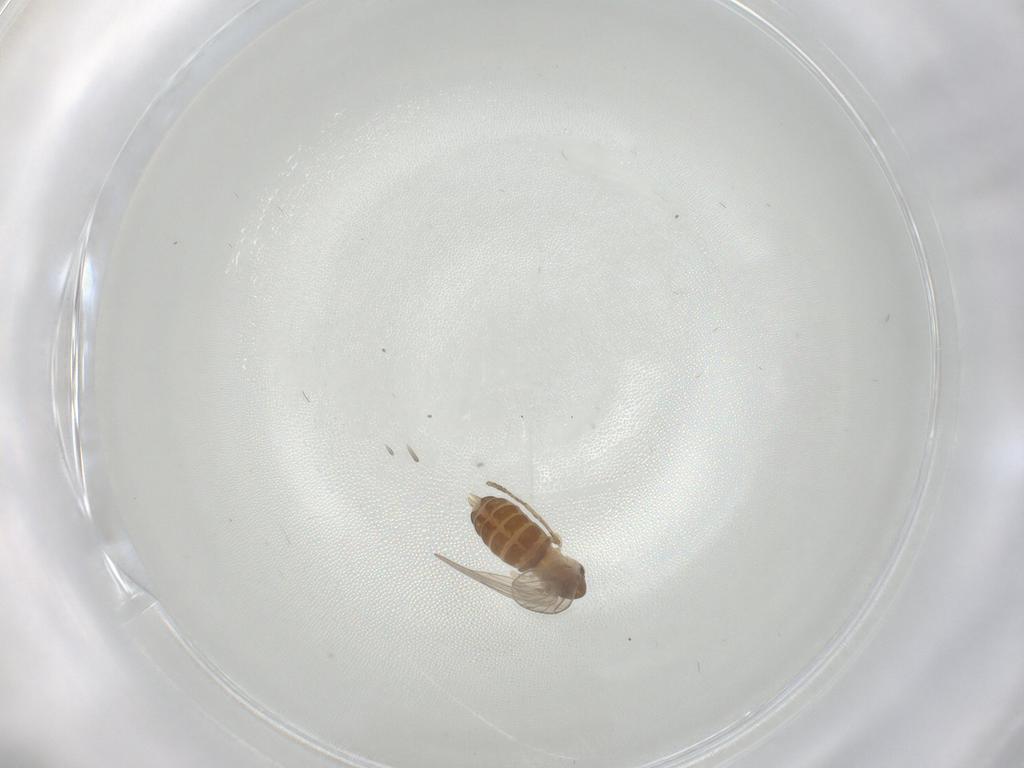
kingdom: Animalia
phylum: Arthropoda
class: Insecta
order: Diptera
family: Psychodidae
